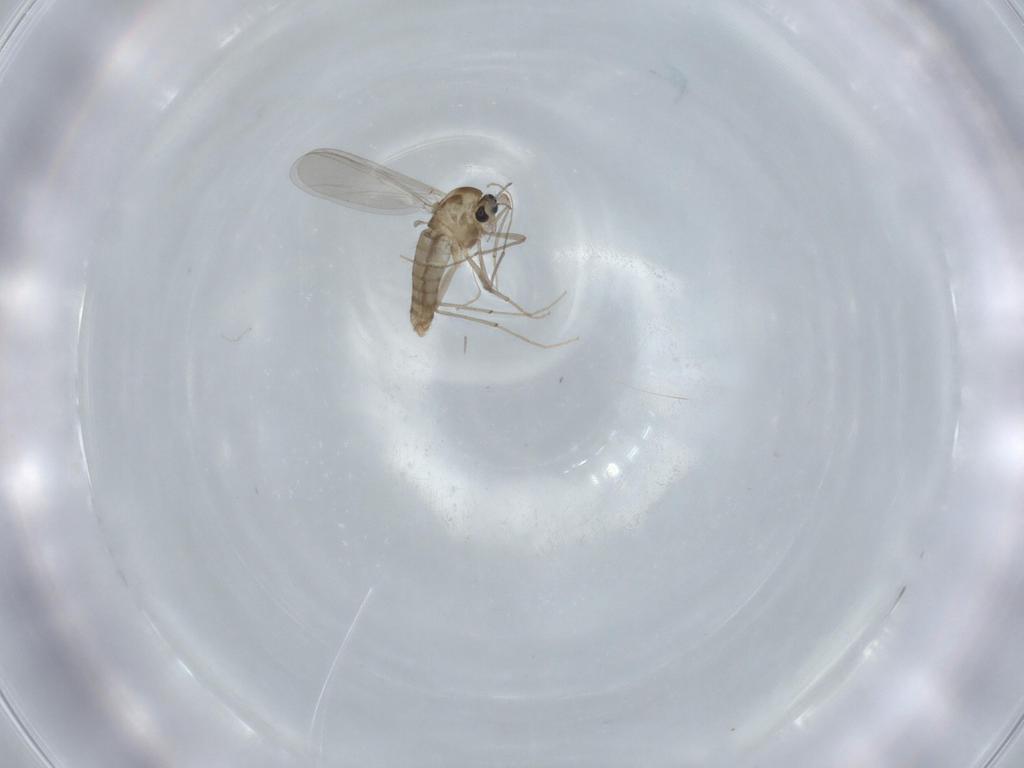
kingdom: Animalia
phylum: Arthropoda
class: Insecta
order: Diptera
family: Chironomidae
